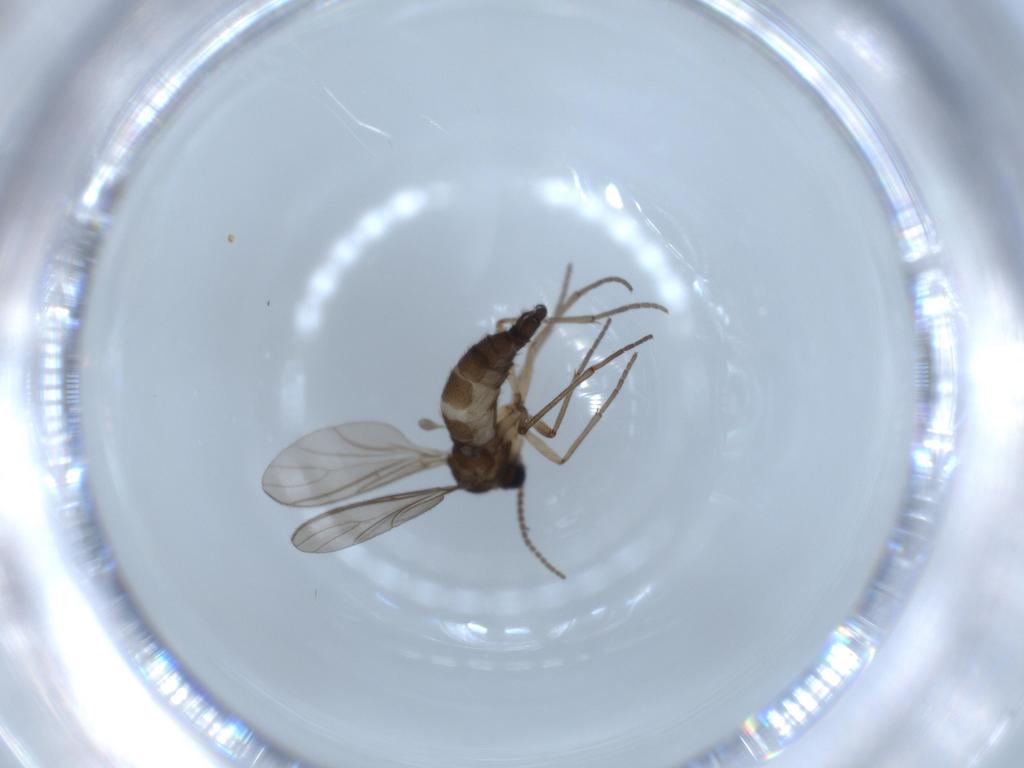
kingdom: Animalia
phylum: Arthropoda
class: Insecta
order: Diptera
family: Sciaridae
